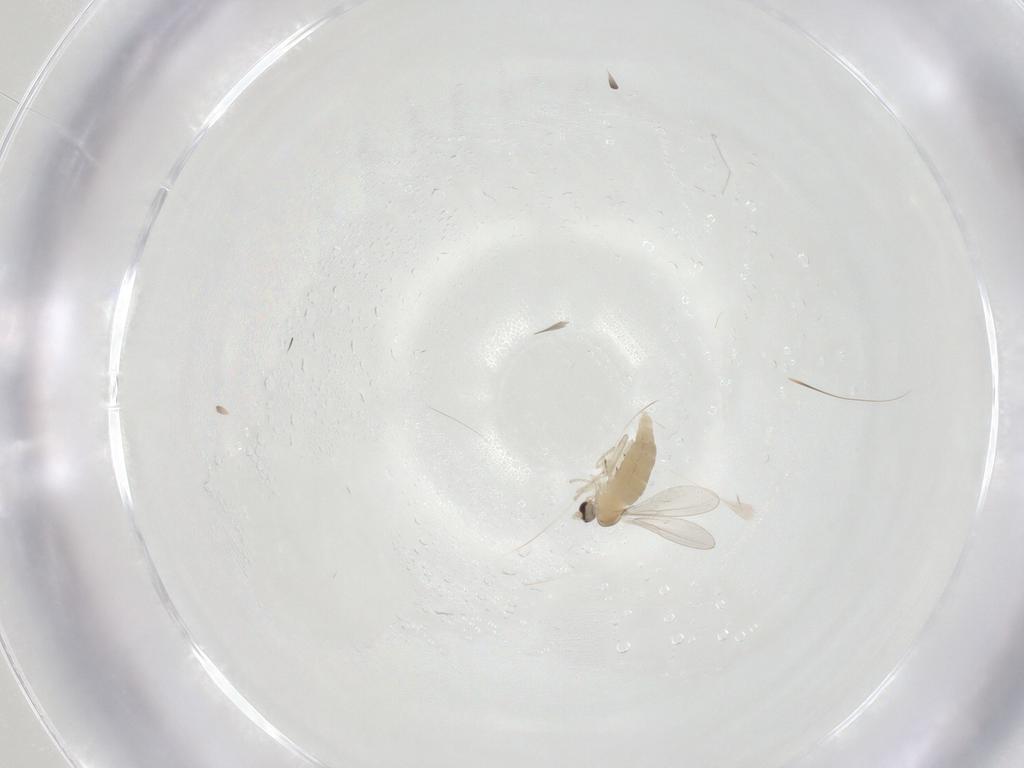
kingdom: Animalia
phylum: Arthropoda
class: Insecta
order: Diptera
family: Cecidomyiidae
